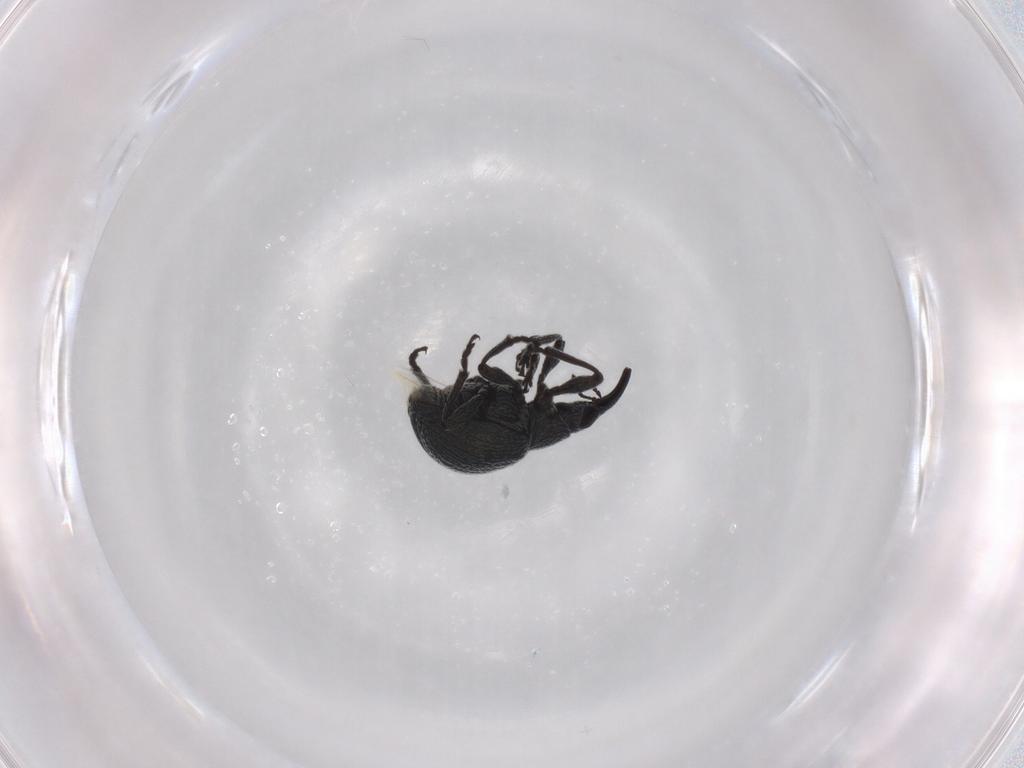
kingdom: Animalia
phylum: Arthropoda
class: Insecta
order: Coleoptera
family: Brentidae
